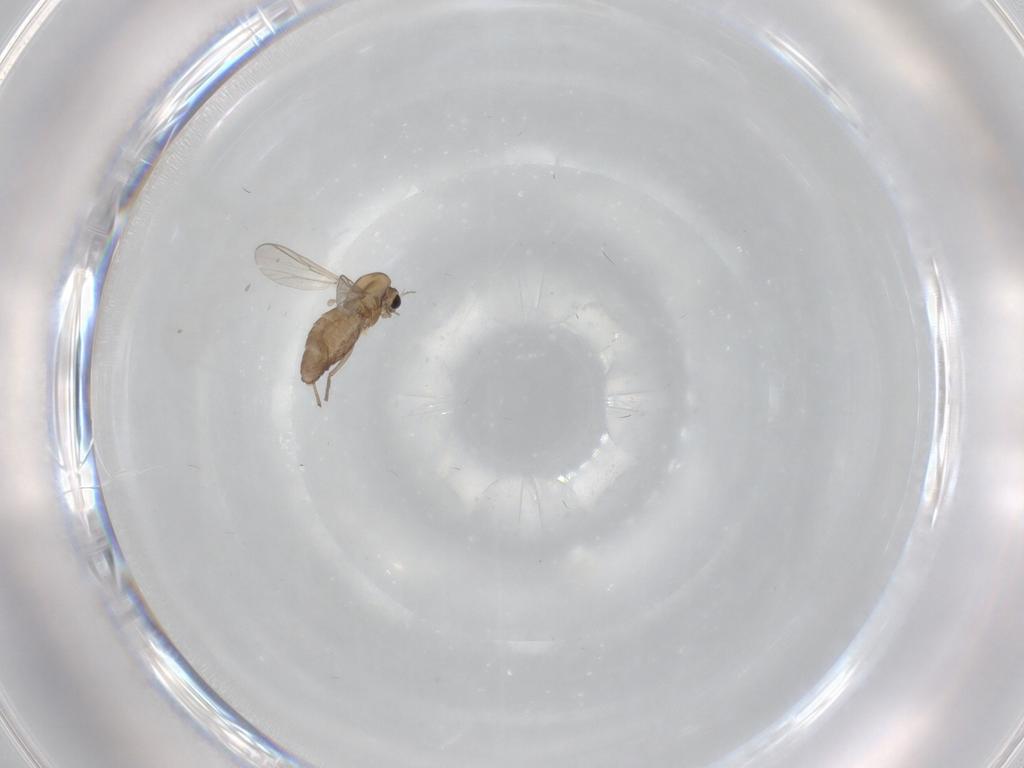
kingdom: Animalia
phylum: Arthropoda
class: Insecta
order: Diptera
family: Chironomidae
